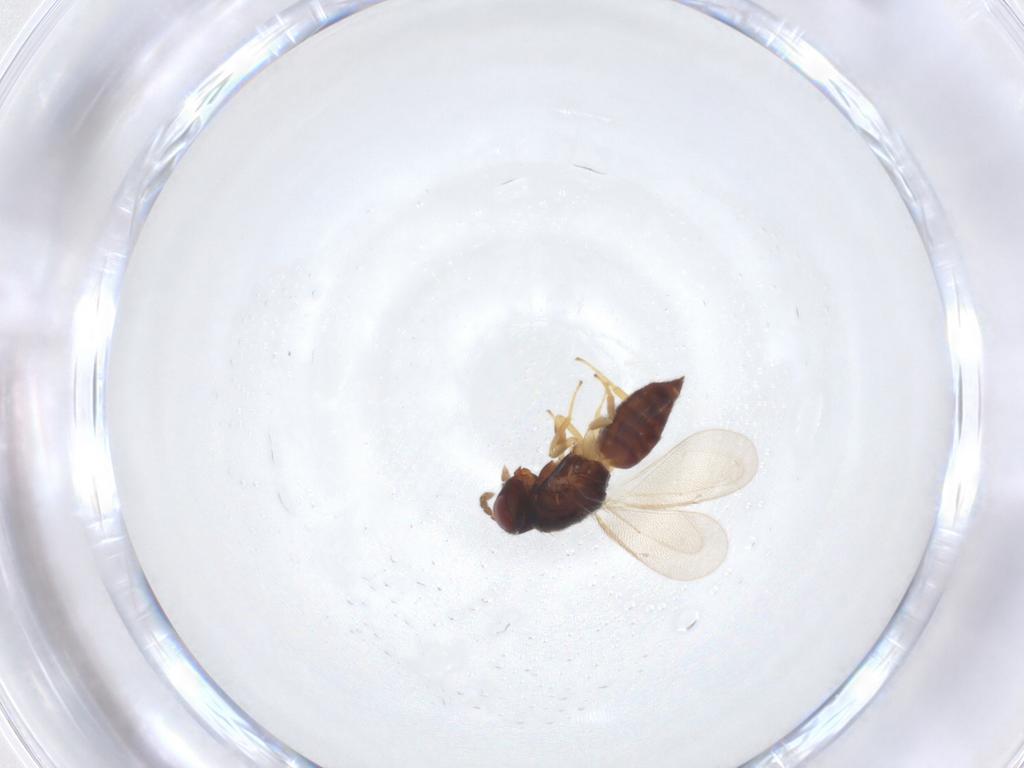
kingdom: Animalia
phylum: Arthropoda
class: Insecta
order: Hymenoptera
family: Eulophidae
